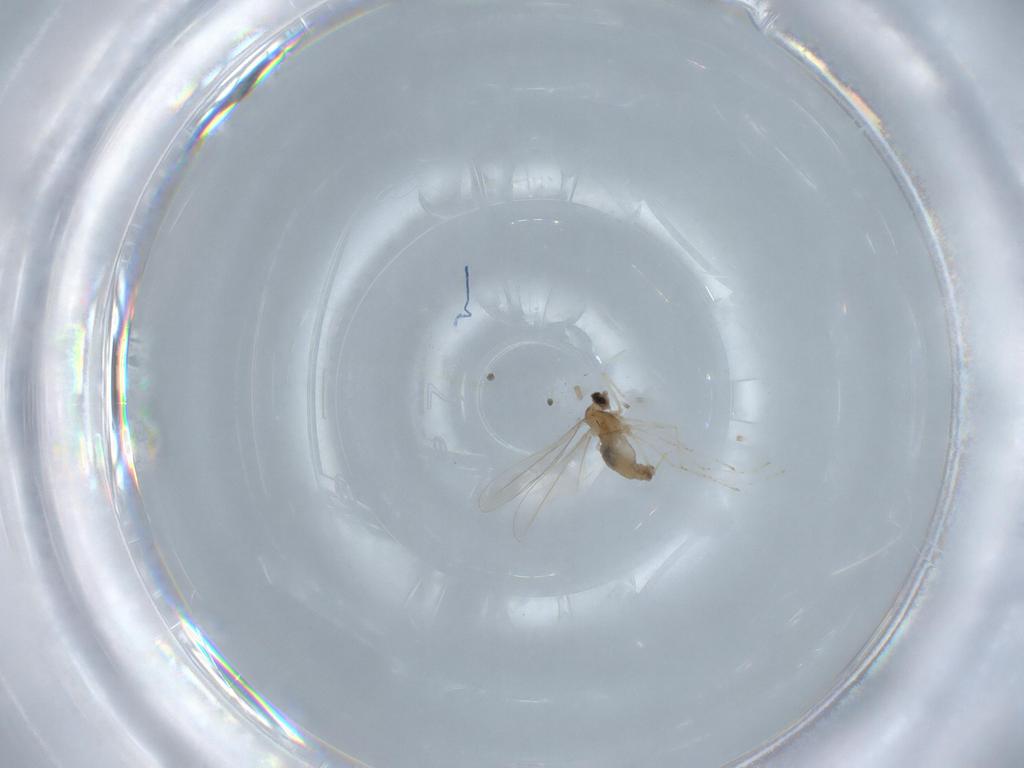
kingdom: Animalia
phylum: Arthropoda
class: Insecta
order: Diptera
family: Cecidomyiidae
